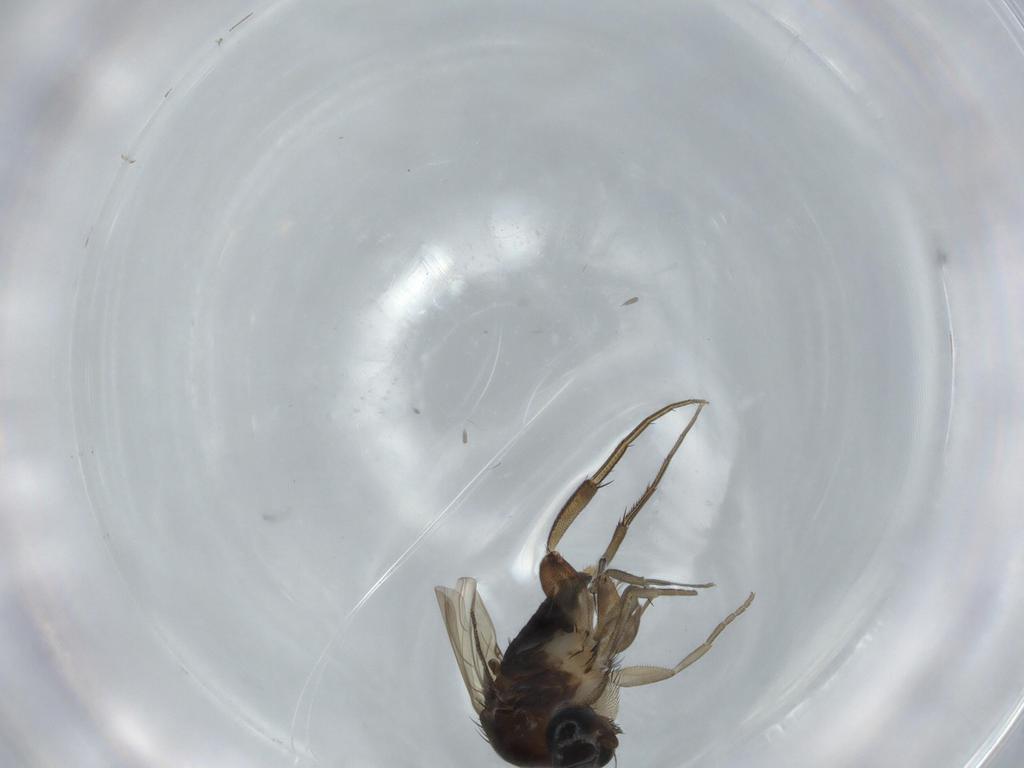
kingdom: Animalia
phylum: Arthropoda
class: Insecta
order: Diptera
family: Phoridae
